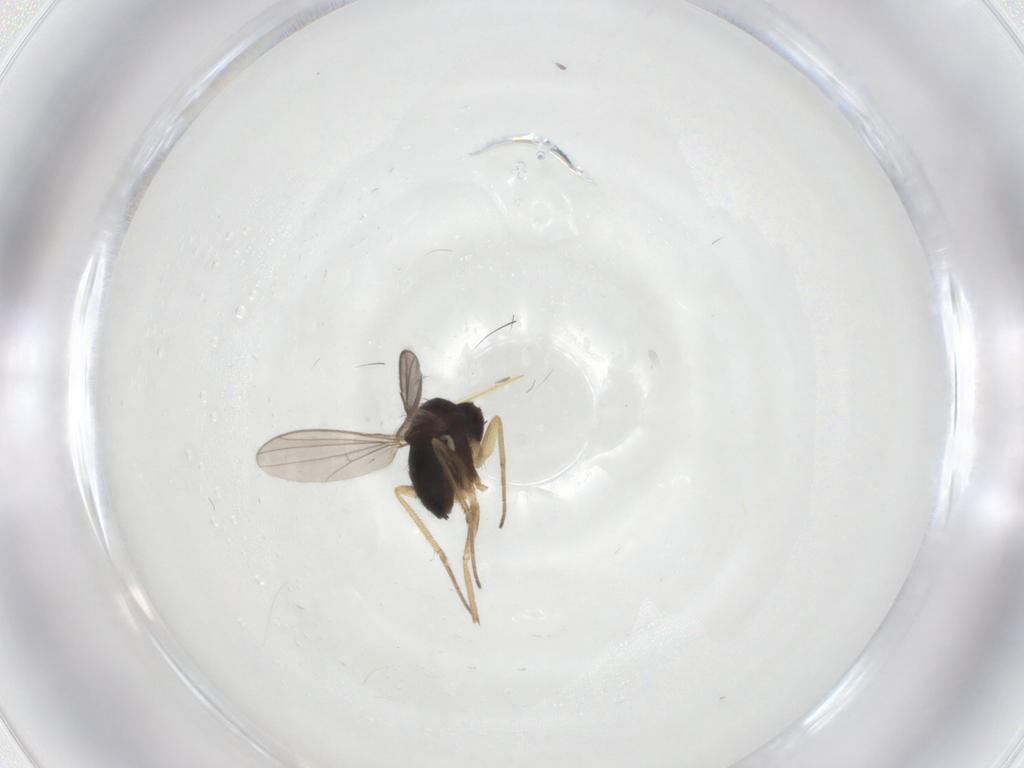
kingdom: Animalia
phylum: Arthropoda
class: Insecta
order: Diptera
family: Dolichopodidae
